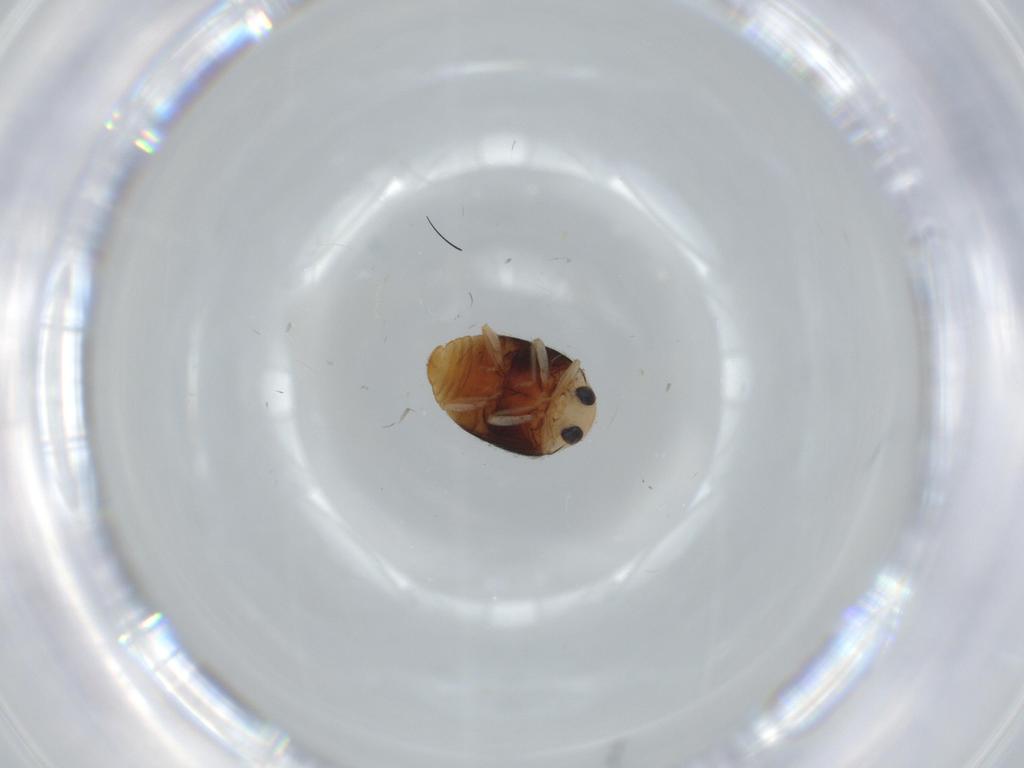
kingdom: Animalia
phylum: Arthropoda
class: Insecta
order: Coleoptera
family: Coccinellidae
